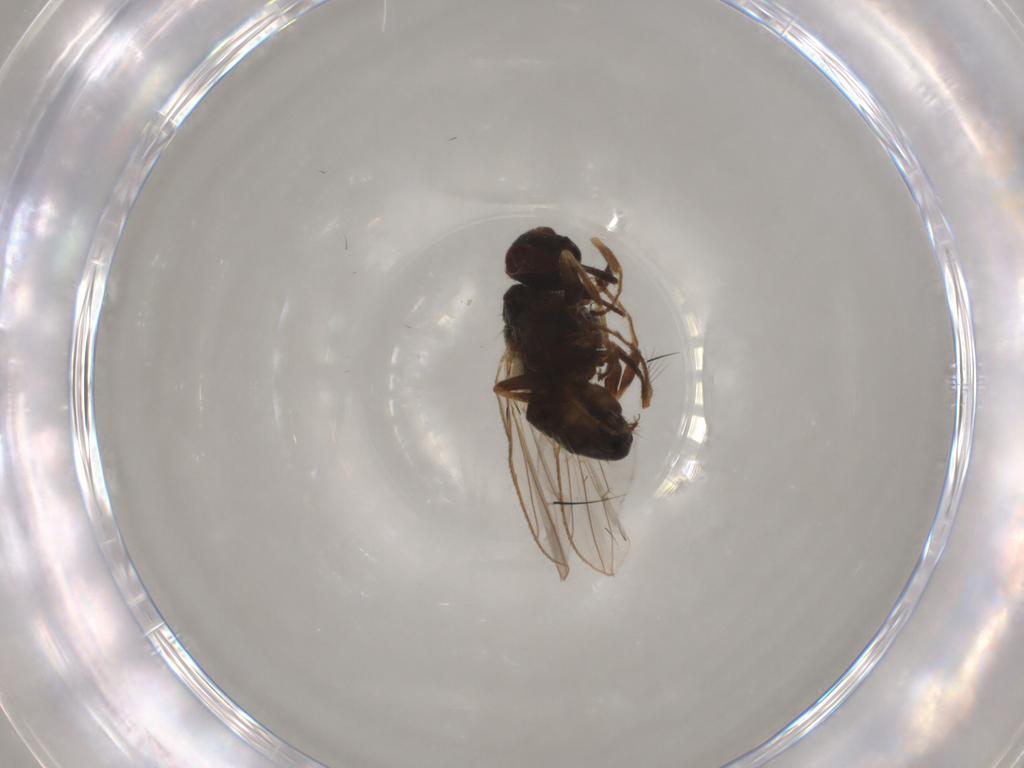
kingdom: Animalia
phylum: Arthropoda
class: Insecta
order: Diptera
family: Muscidae
